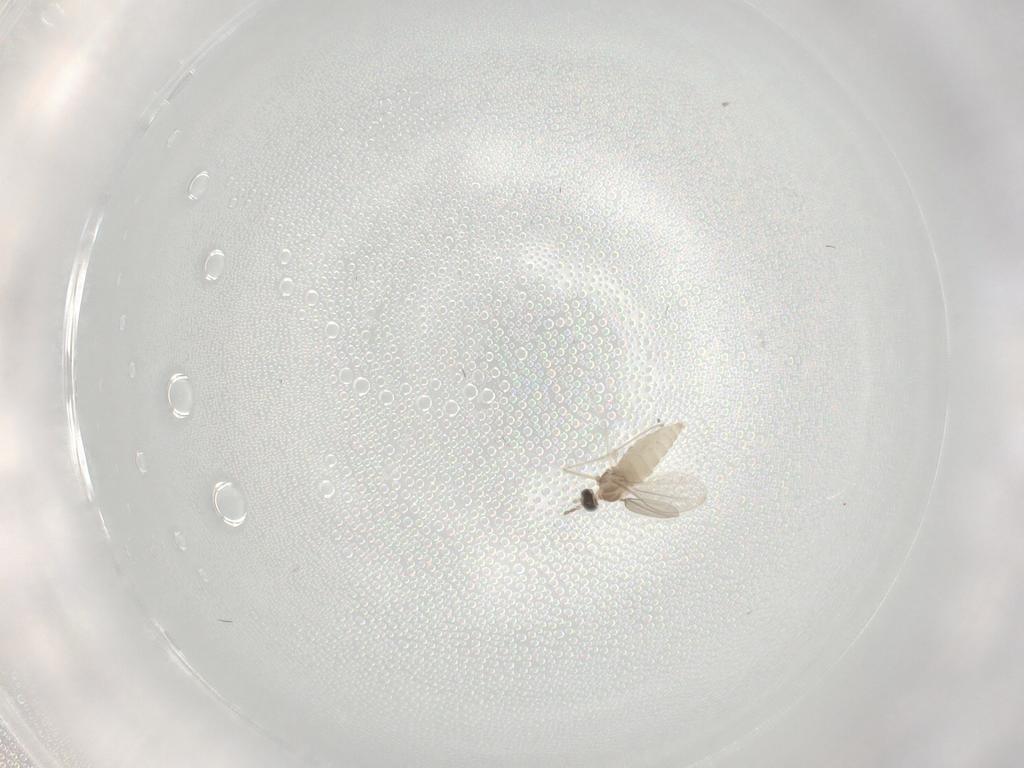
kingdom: Animalia
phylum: Arthropoda
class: Insecta
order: Diptera
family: Cecidomyiidae
